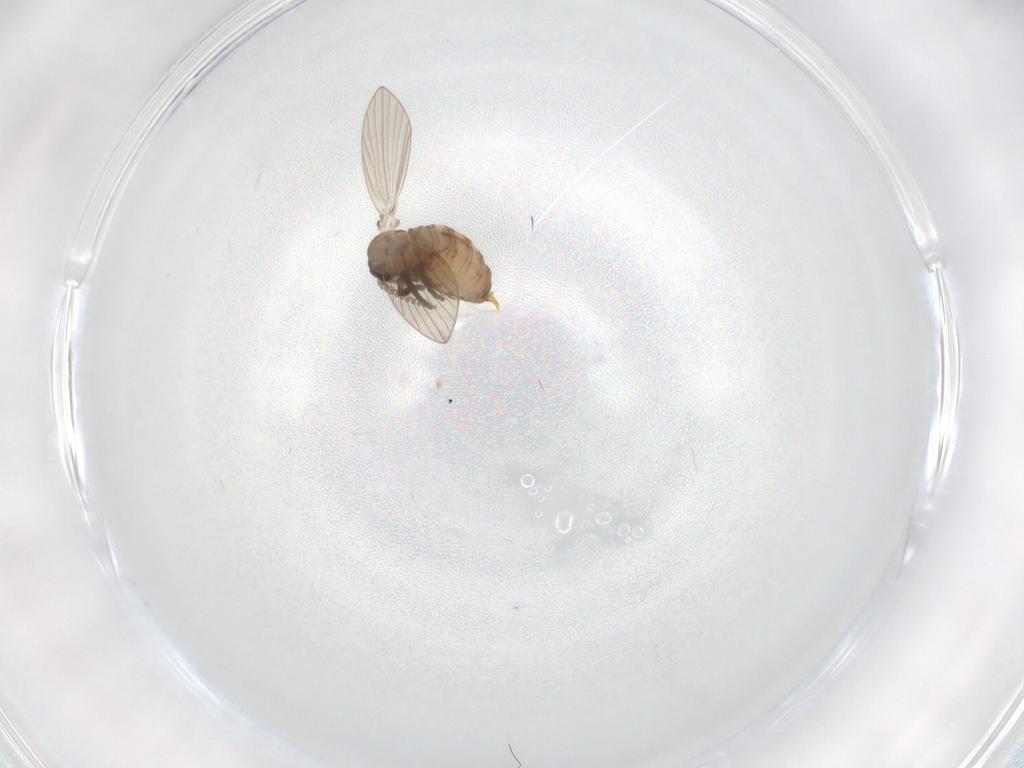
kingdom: Animalia
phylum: Arthropoda
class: Insecta
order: Diptera
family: Psychodidae
